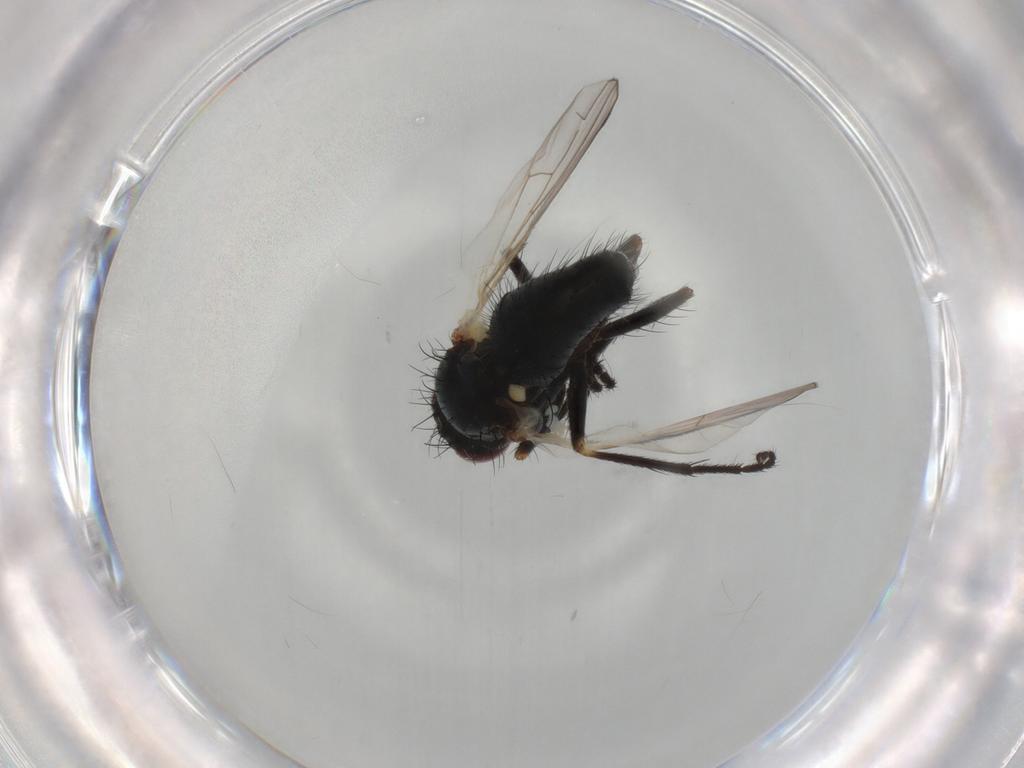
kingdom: Animalia
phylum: Arthropoda
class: Insecta
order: Diptera
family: Muscidae
